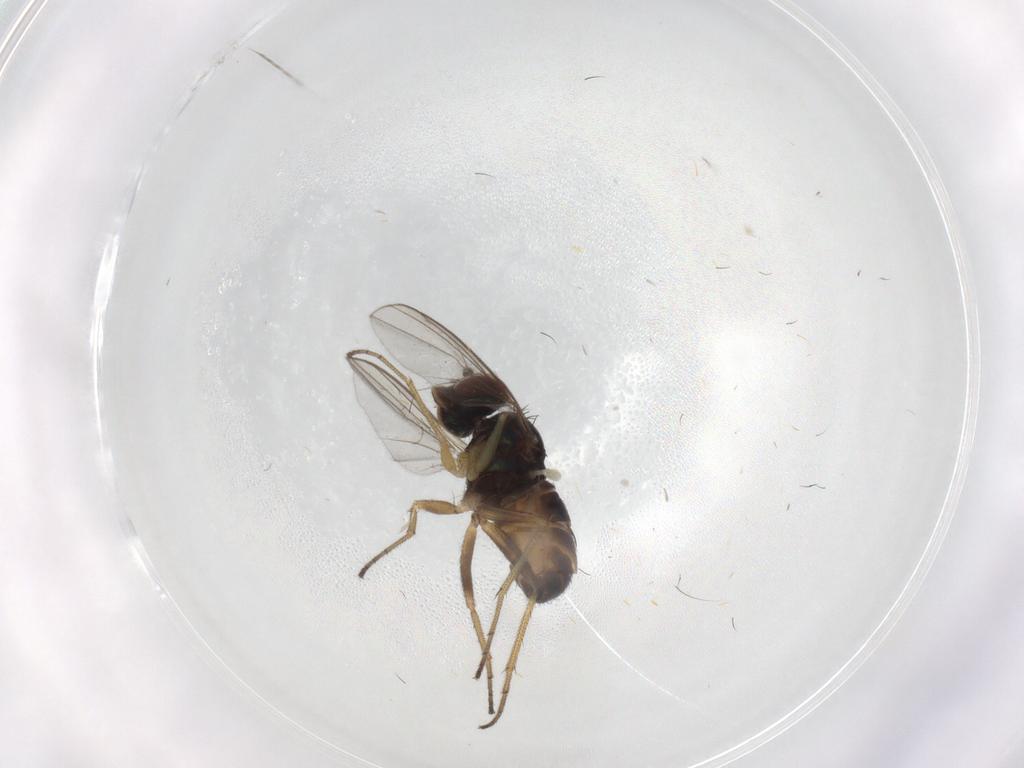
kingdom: Animalia
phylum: Arthropoda
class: Insecta
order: Diptera
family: Dolichopodidae
